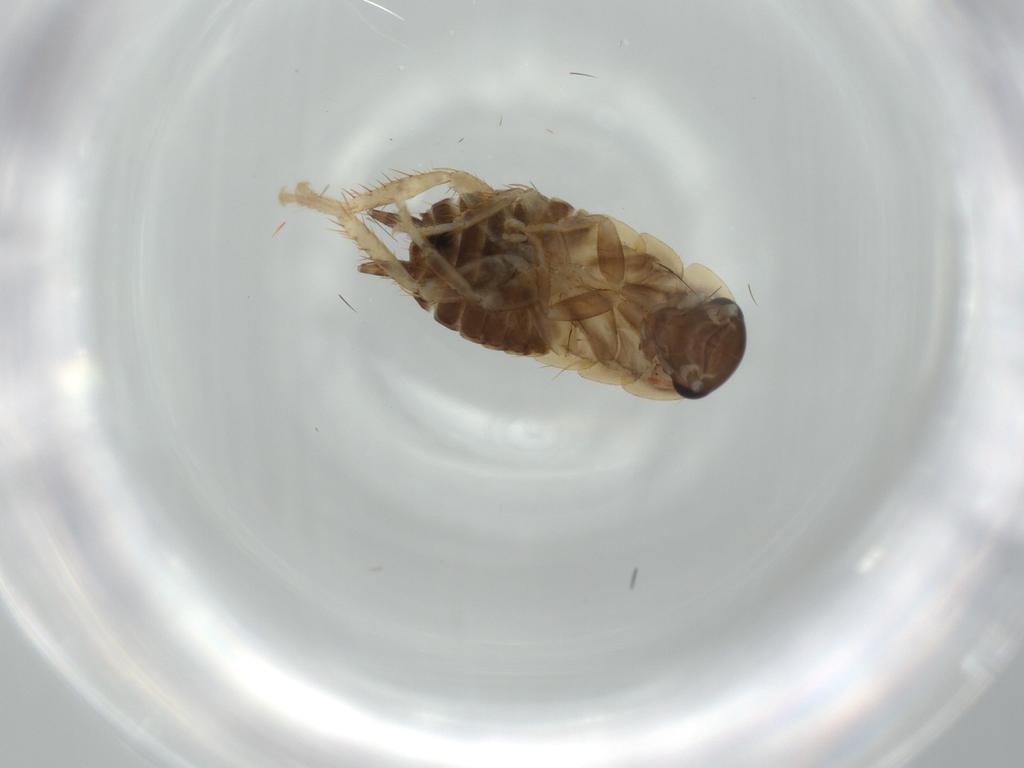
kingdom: Animalia
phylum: Arthropoda
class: Insecta
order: Blattodea
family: Ectobiidae
